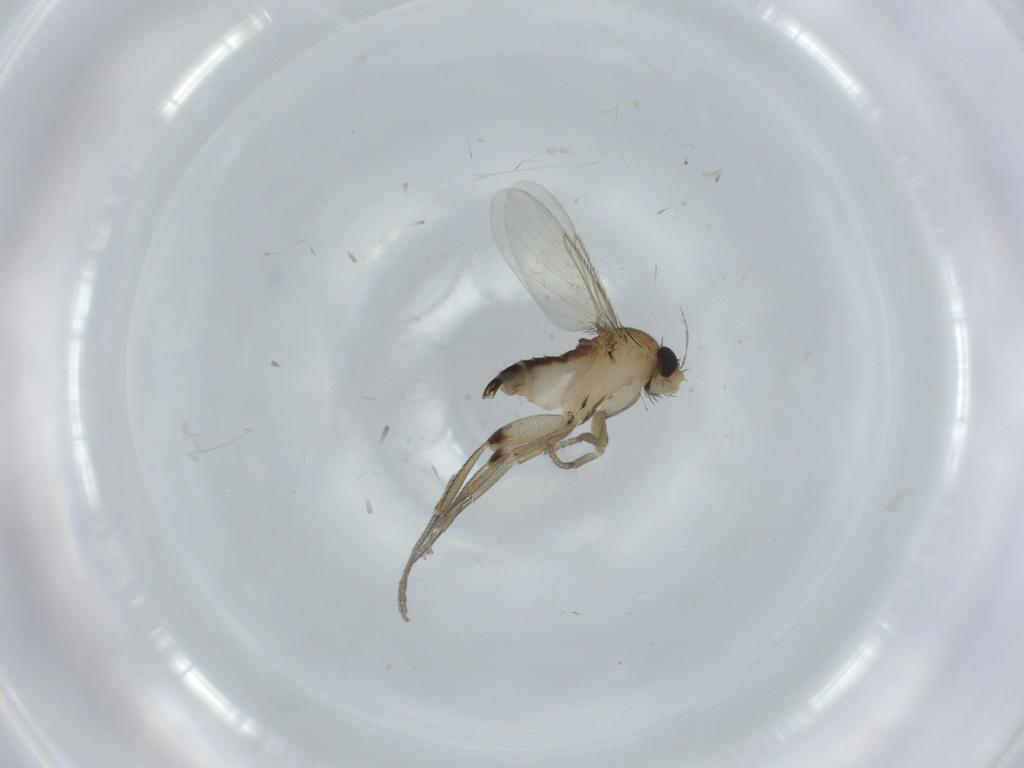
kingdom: Animalia
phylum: Arthropoda
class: Insecta
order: Diptera
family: Phoridae
